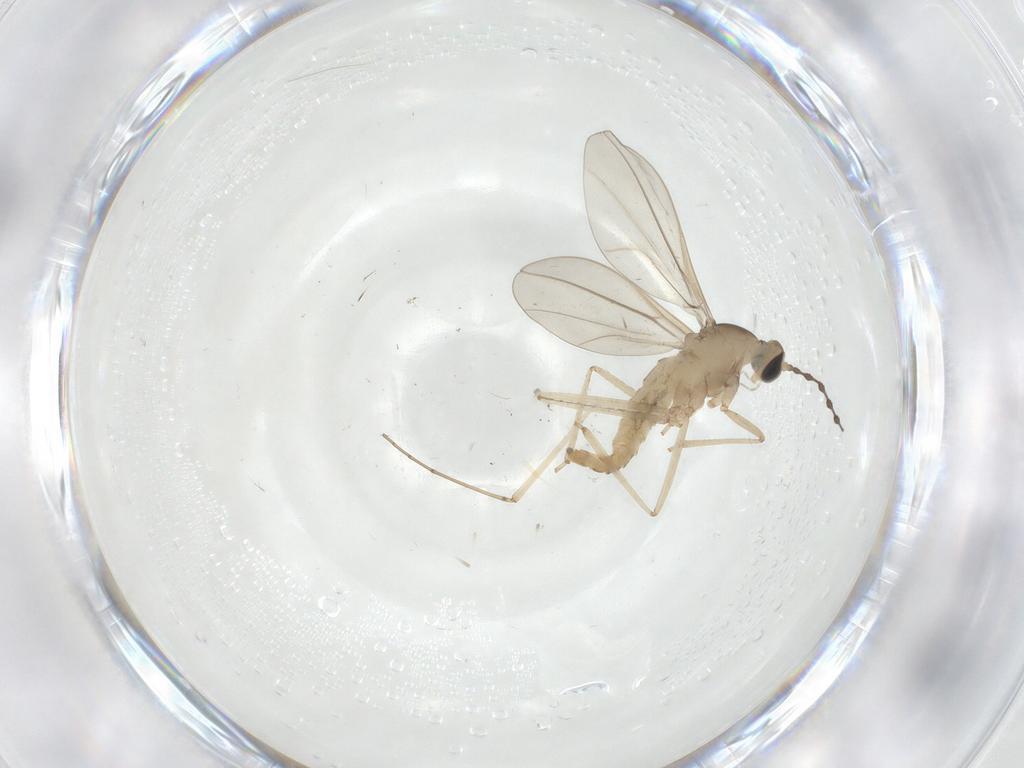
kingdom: Animalia
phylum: Arthropoda
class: Insecta
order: Diptera
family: Cecidomyiidae
